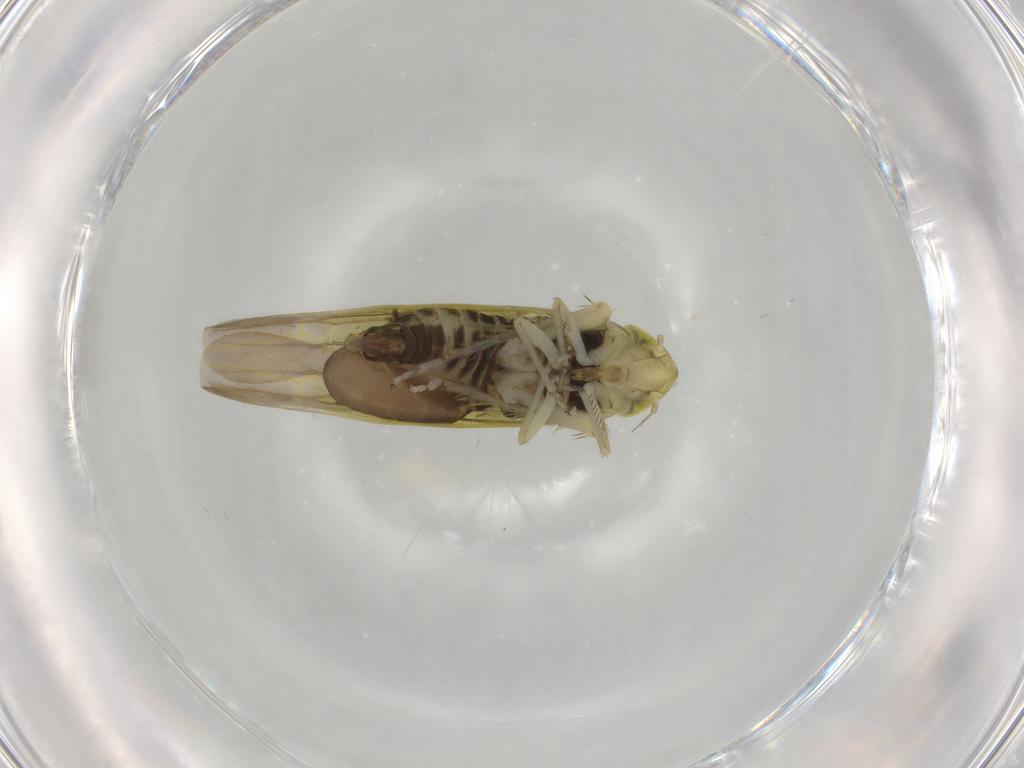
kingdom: Animalia
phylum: Arthropoda
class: Insecta
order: Hemiptera
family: Cicadellidae
